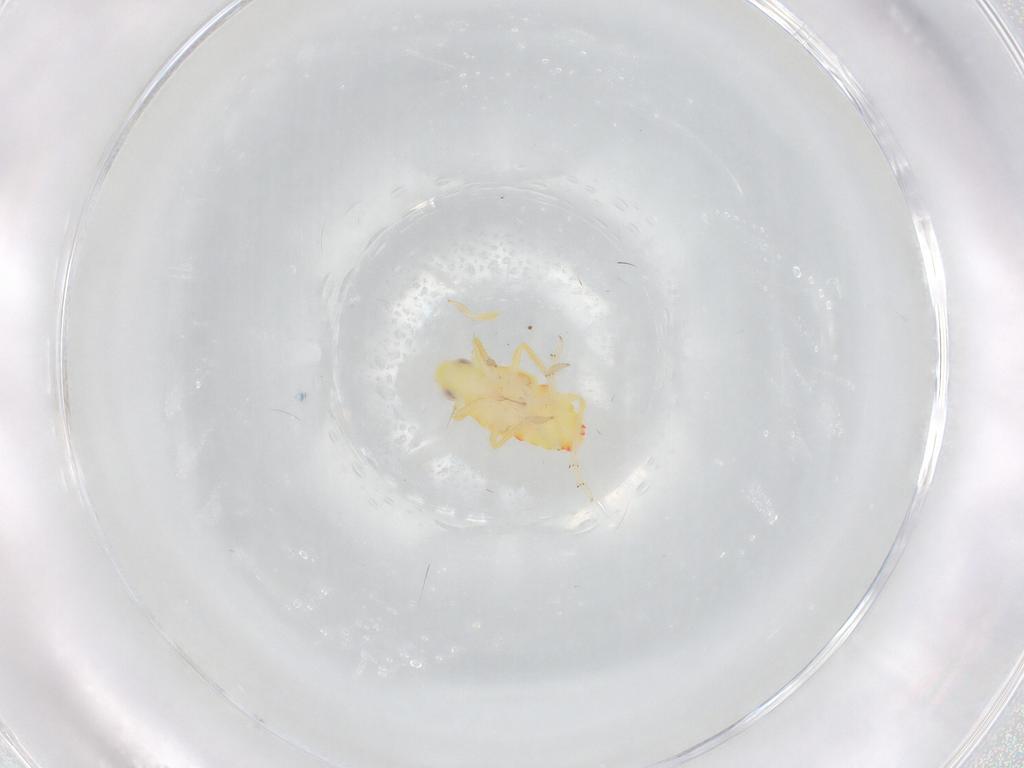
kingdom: Animalia
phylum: Arthropoda
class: Insecta
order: Hemiptera
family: Tropiduchidae
